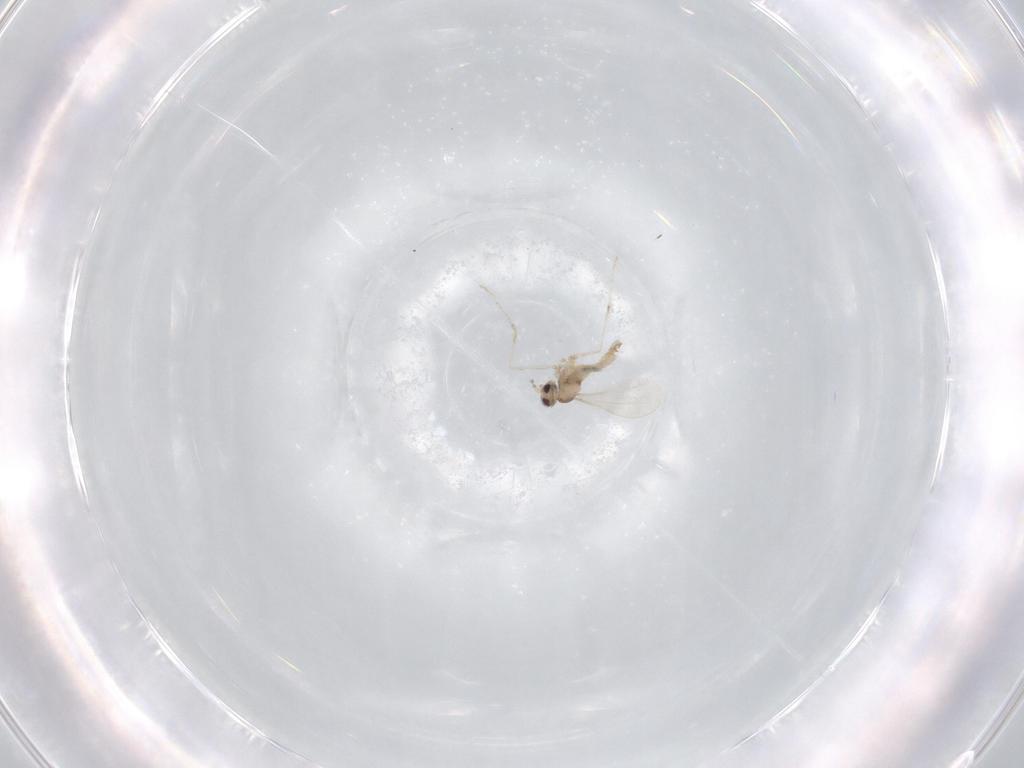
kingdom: Animalia
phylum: Arthropoda
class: Insecta
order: Diptera
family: Cecidomyiidae
